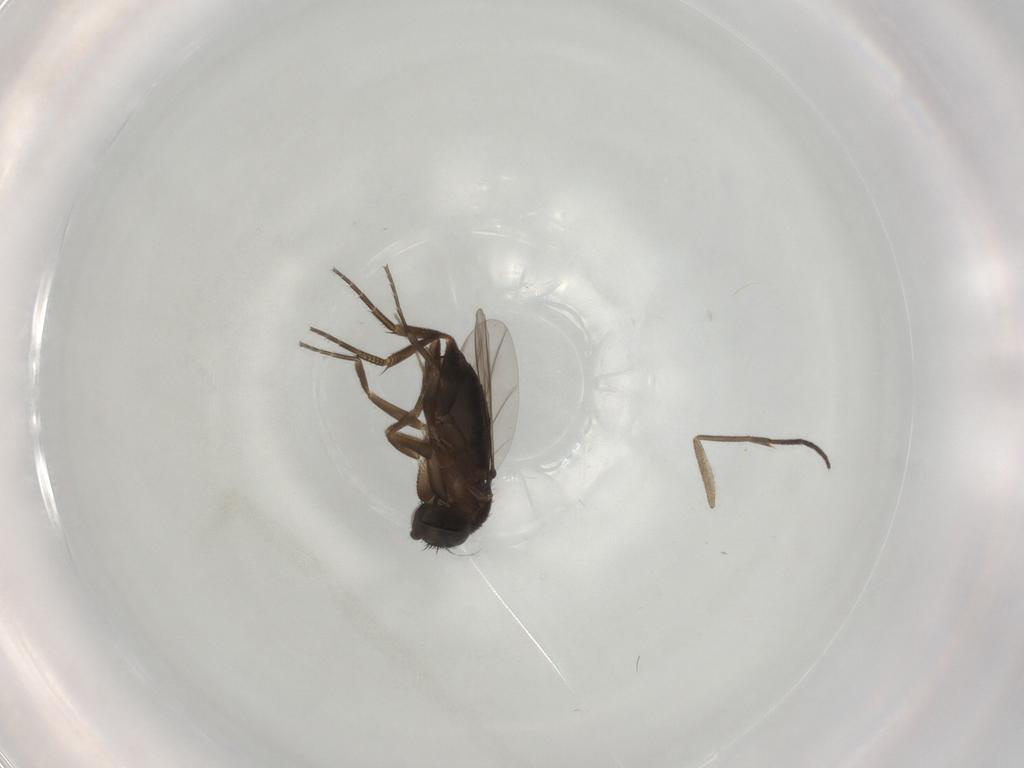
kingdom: Animalia
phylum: Arthropoda
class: Insecta
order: Diptera
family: Phoridae
